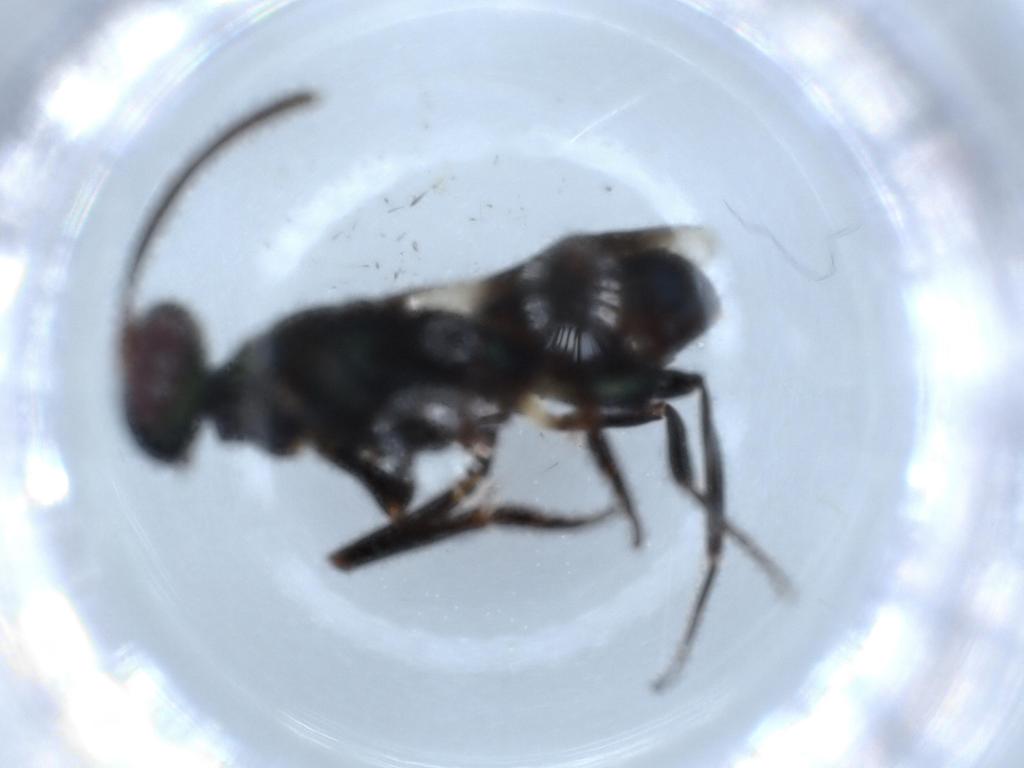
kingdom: Animalia
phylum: Arthropoda
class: Insecta
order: Hymenoptera
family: Eupelmidae
